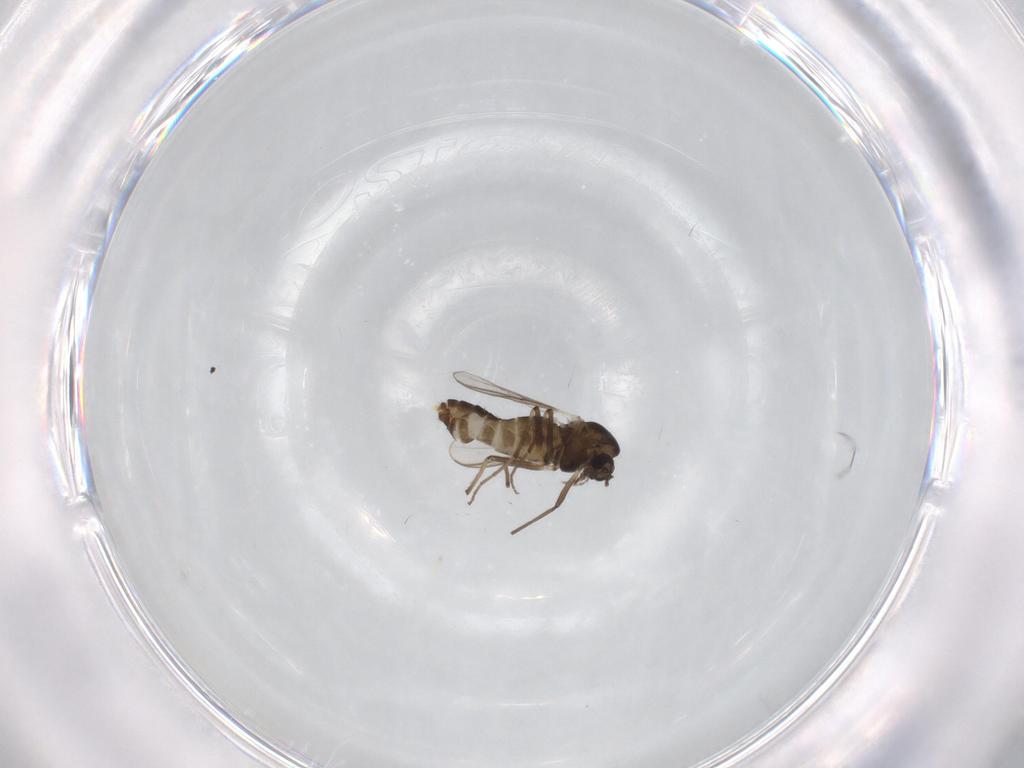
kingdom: Animalia
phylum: Arthropoda
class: Insecta
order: Diptera
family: Chironomidae
